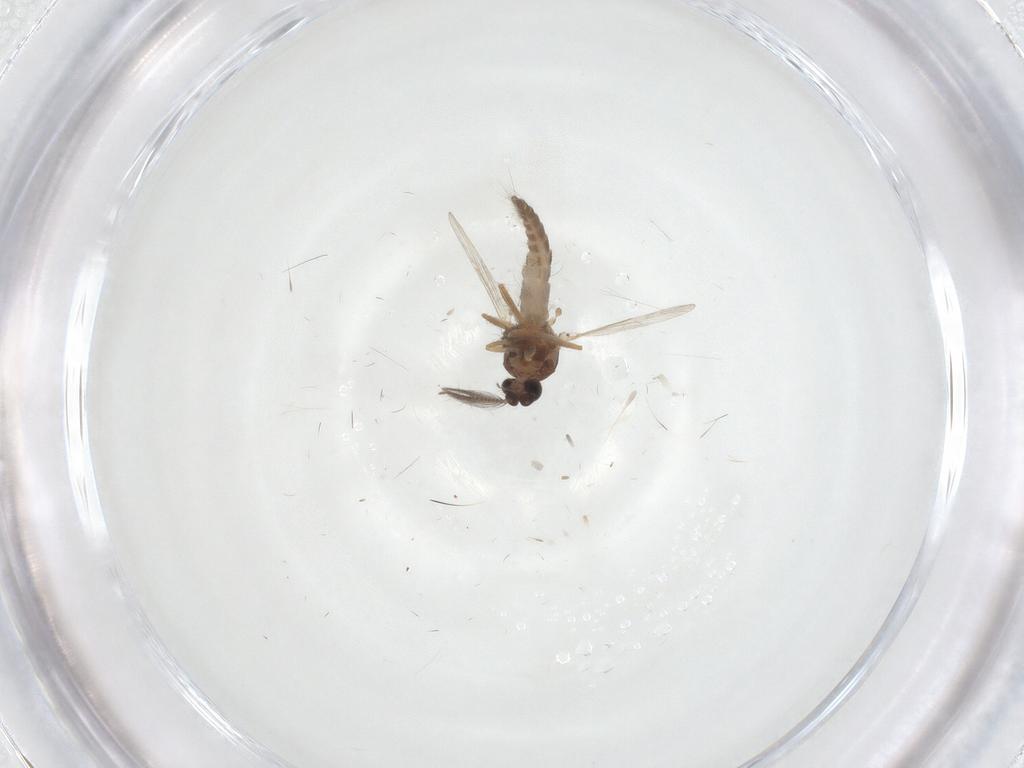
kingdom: Animalia
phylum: Arthropoda
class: Insecta
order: Diptera
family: Ceratopogonidae
